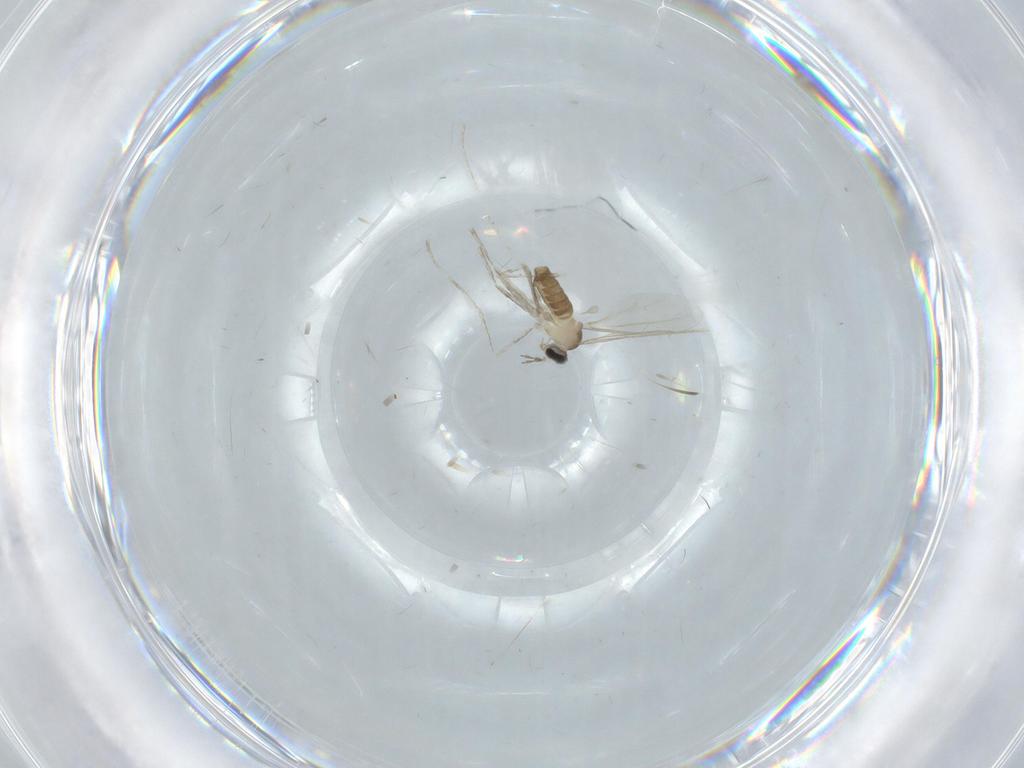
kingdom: Animalia
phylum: Arthropoda
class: Insecta
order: Diptera
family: Cecidomyiidae
